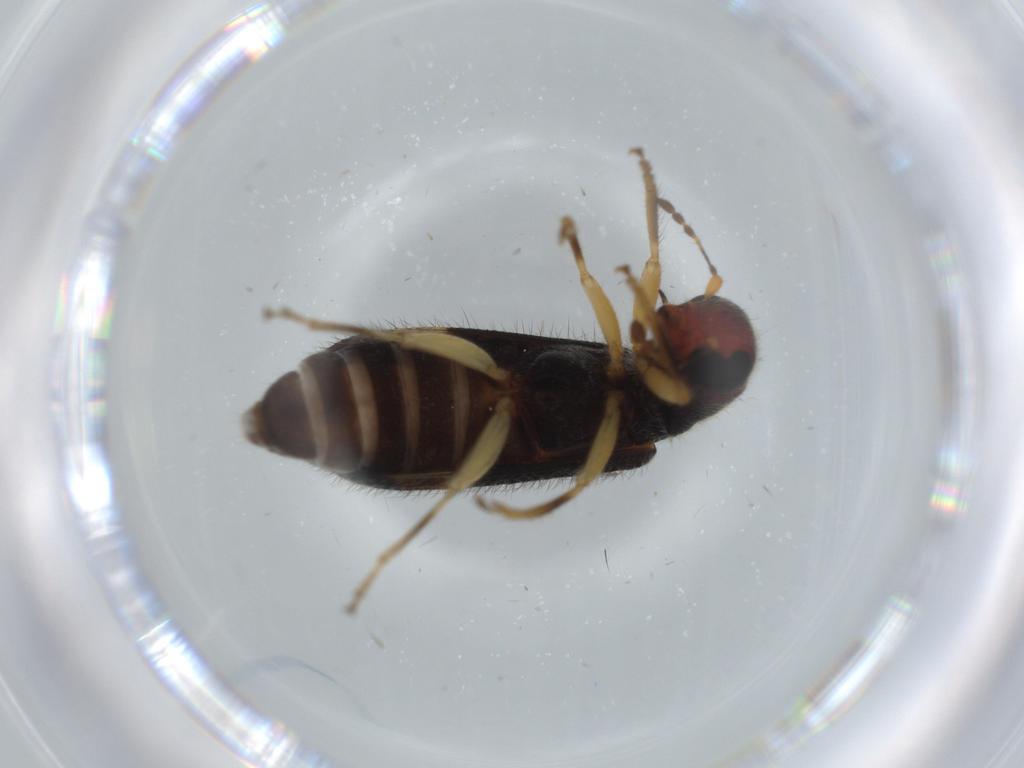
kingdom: Animalia
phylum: Arthropoda
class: Insecta
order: Coleoptera
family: Cleridae
